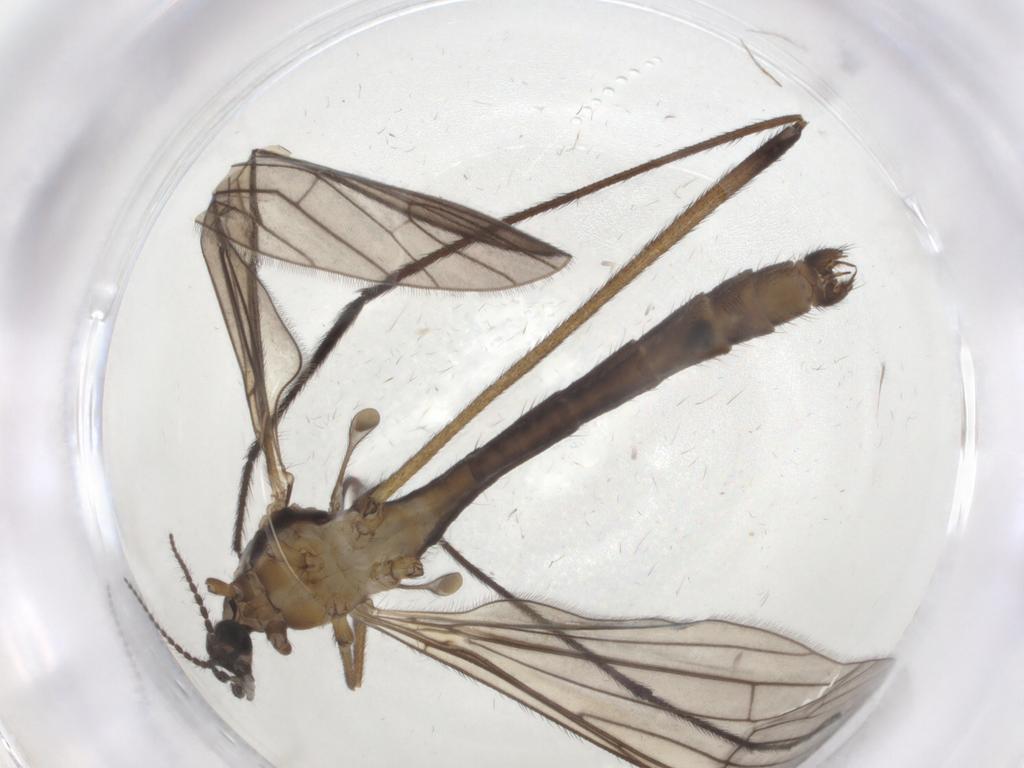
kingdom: Animalia
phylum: Arthropoda
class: Insecta
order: Diptera
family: Limoniidae
